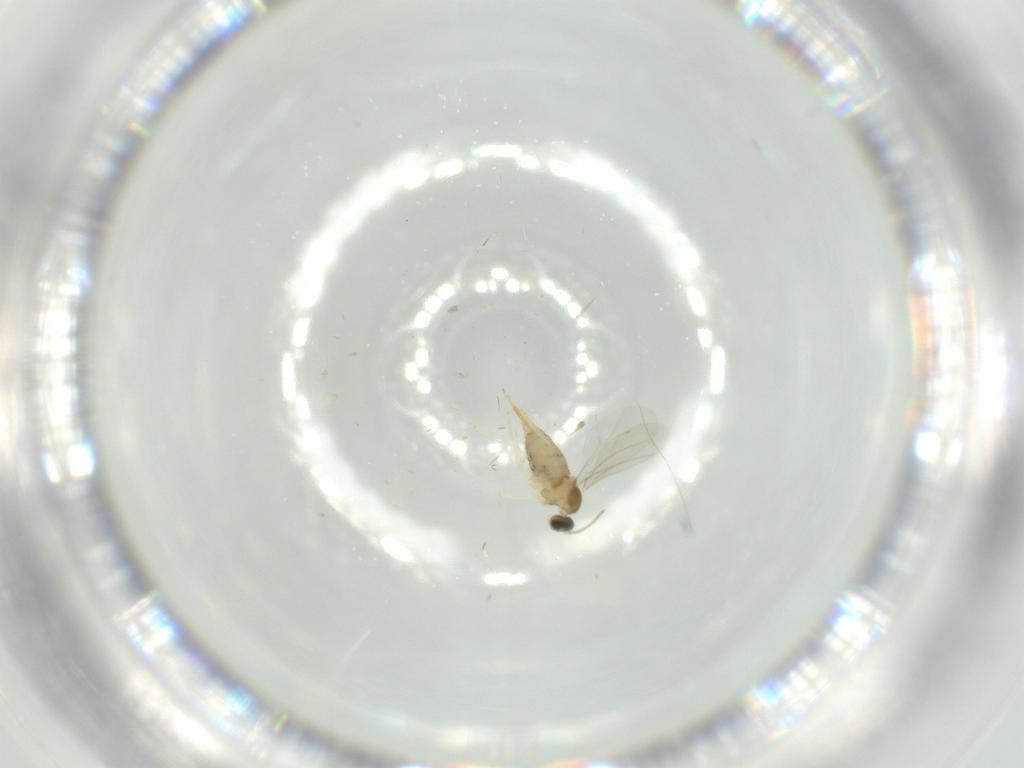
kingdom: Animalia
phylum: Arthropoda
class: Insecta
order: Diptera
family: Cecidomyiidae
